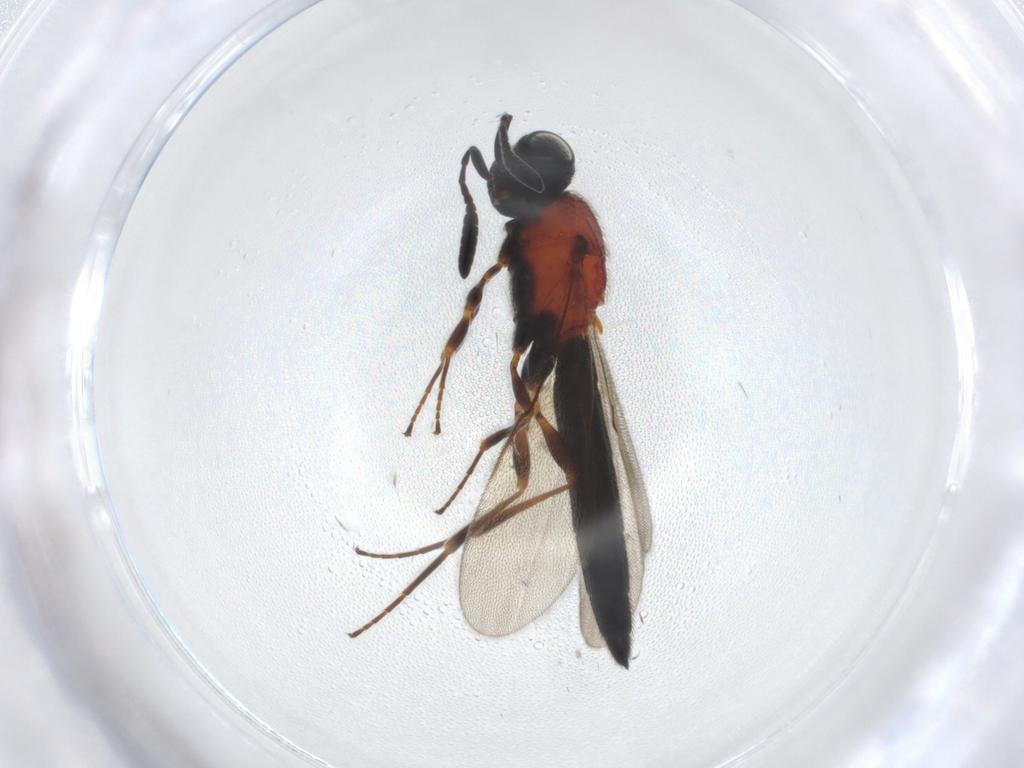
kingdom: Animalia
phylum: Arthropoda
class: Insecta
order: Hymenoptera
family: Scelionidae
